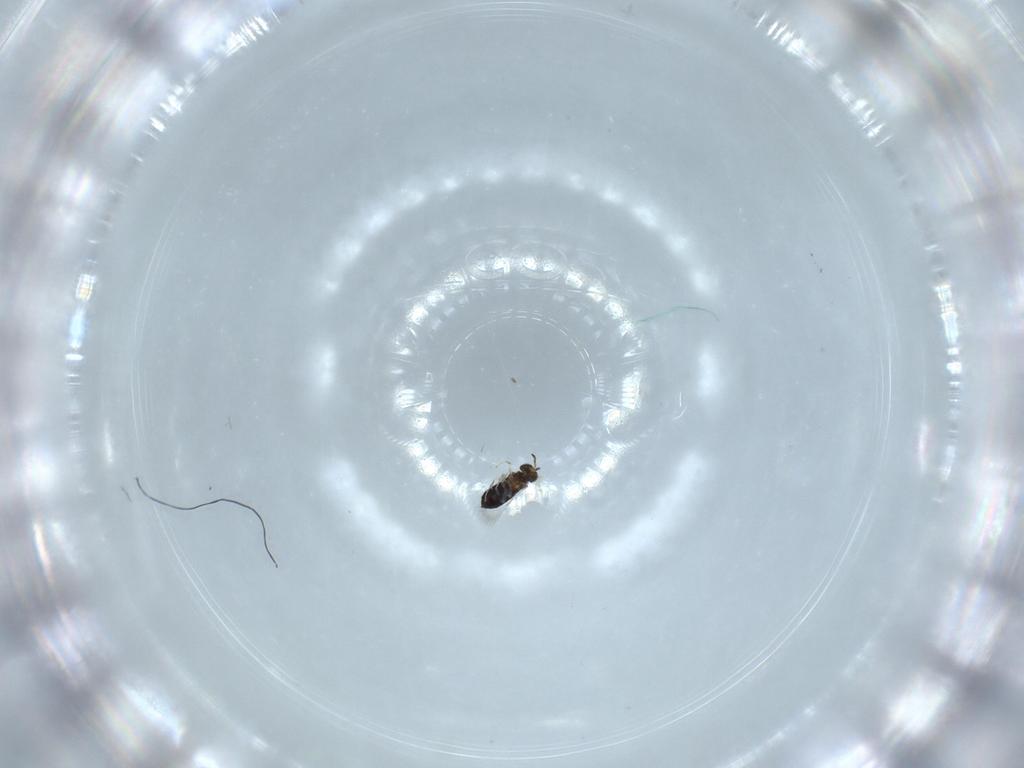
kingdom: Animalia
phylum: Arthropoda
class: Insecta
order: Hymenoptera
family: Signiphoridae
